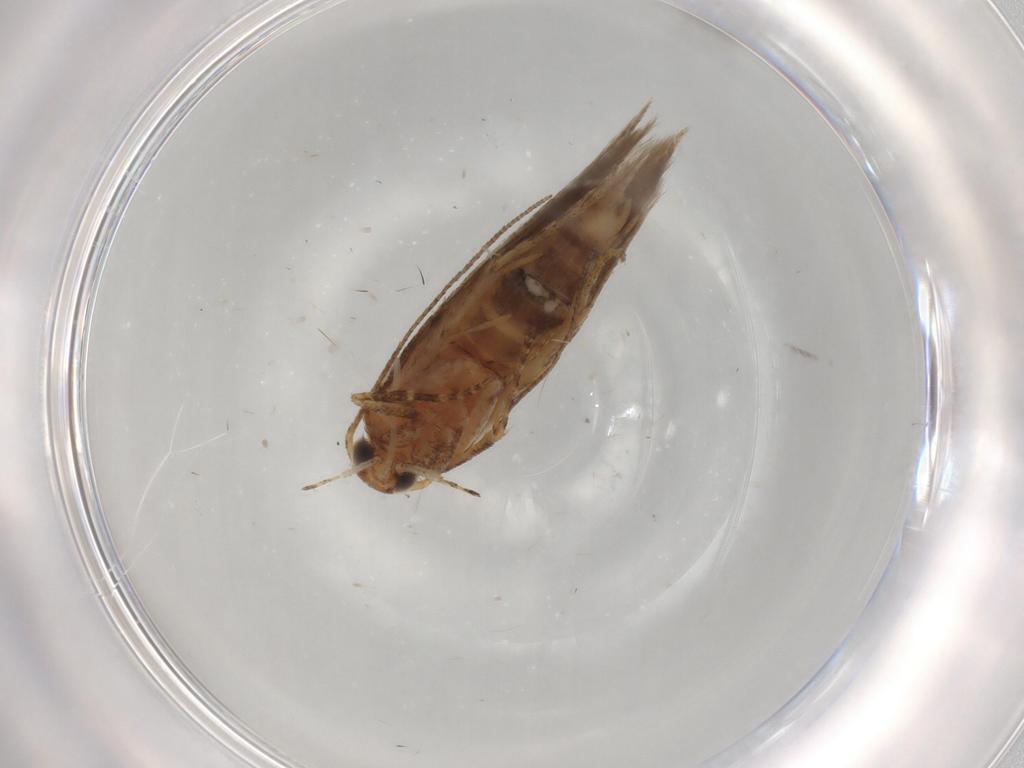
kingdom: Animalia
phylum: Arthropoda
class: Insecta
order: Lepidoptera
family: Gelechiidae
